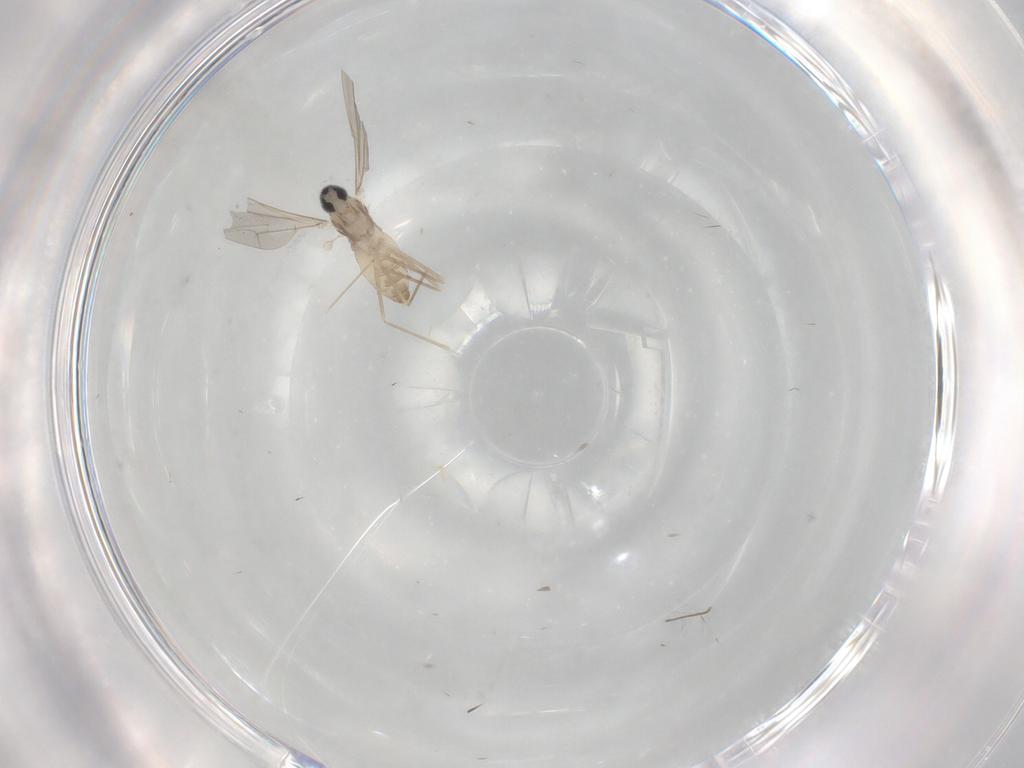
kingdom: Animalia
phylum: Arthropoda
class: Insecta
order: Diptera
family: Cecidomyiidae
